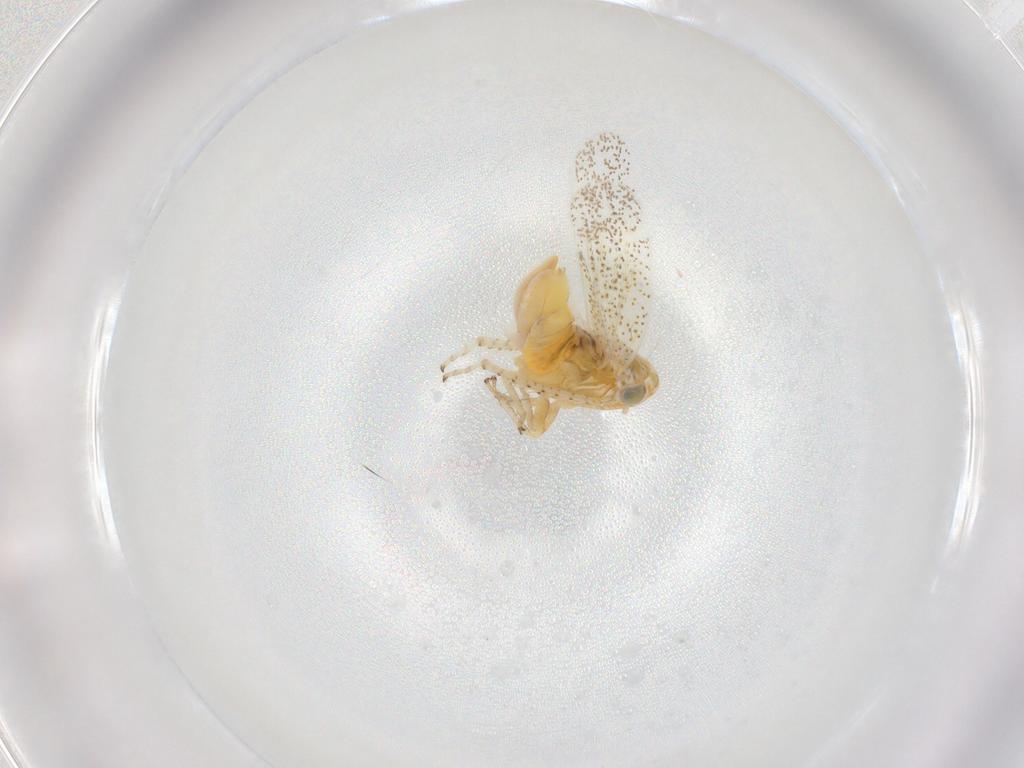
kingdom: Animalia
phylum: Arthropoda
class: Insecta
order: Hemiptera
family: Cicadellidae
